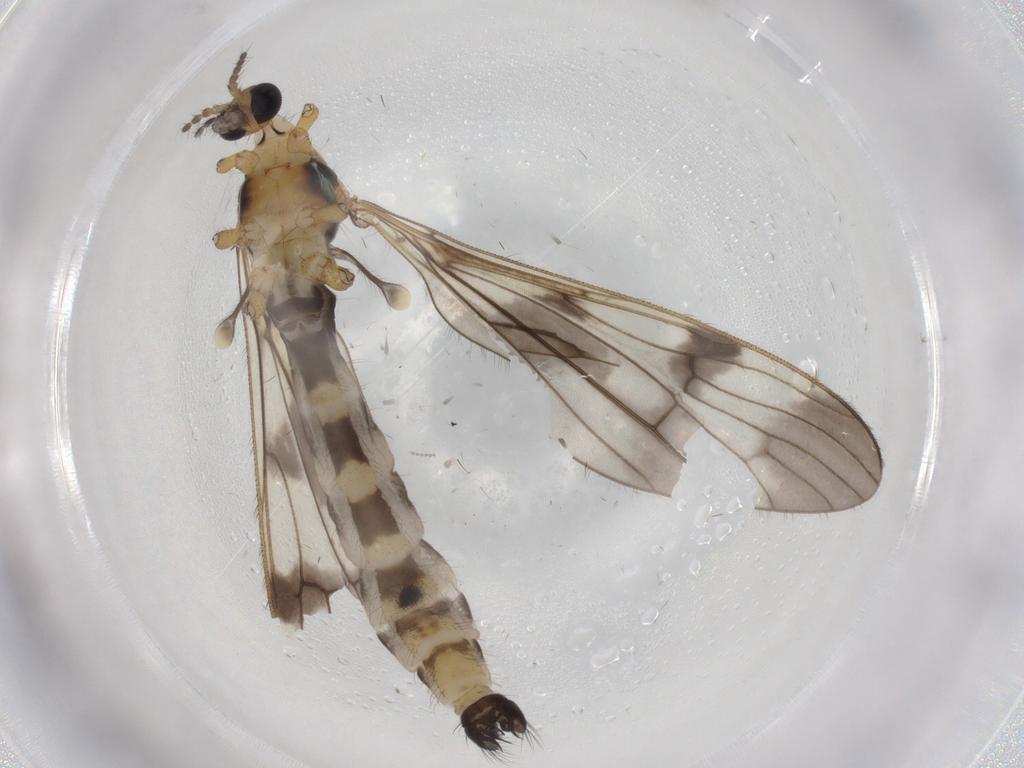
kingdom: Animalia
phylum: Arthropoda
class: Insecta
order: Diptera
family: Limoniidae
